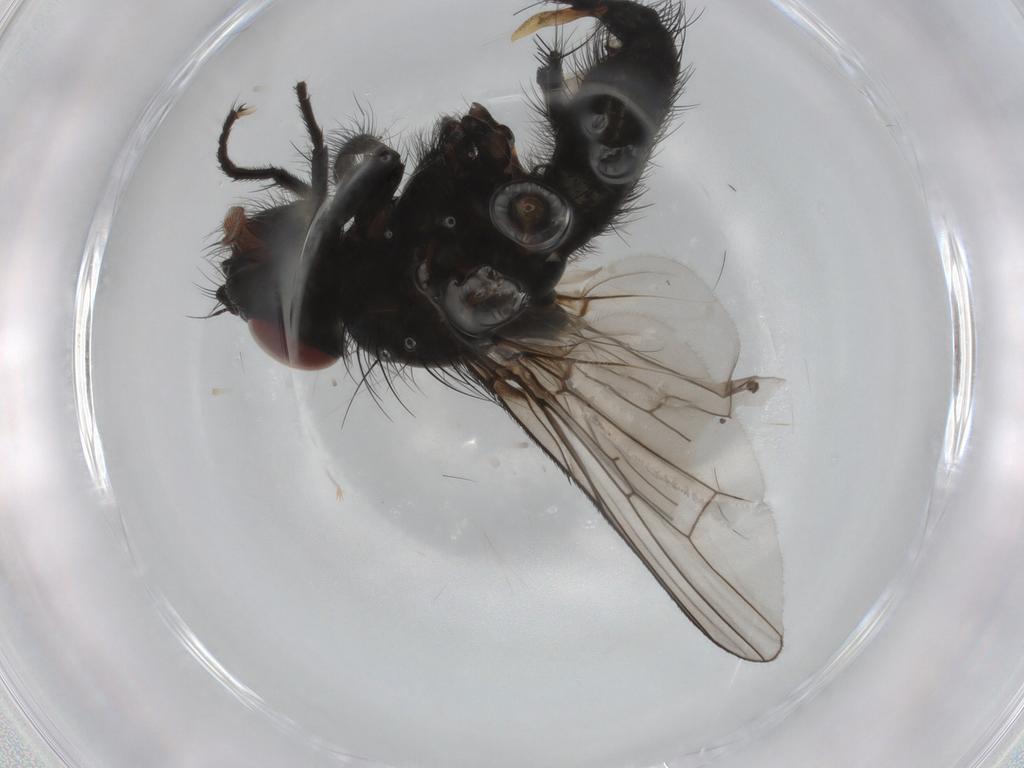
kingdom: Animalia
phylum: Arthropoda
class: Insecta
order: Diptera
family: Anthomyiidae
